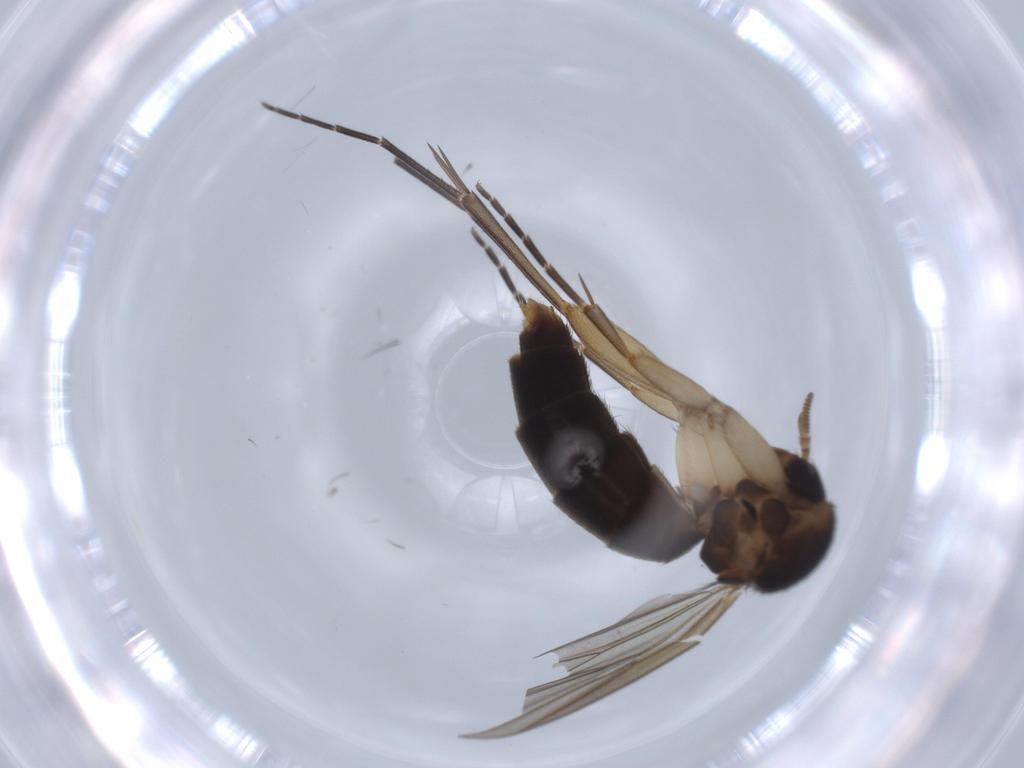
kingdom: Animalia
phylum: Arthropoda
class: Insecta
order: Diptera
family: Mycetophilidae
